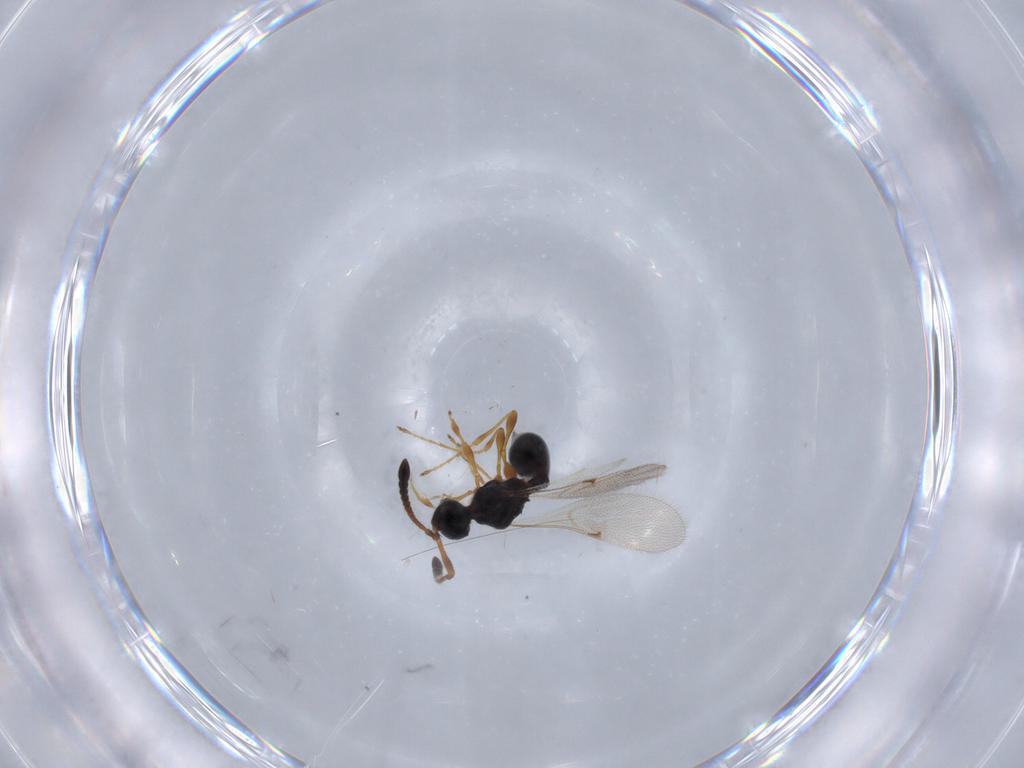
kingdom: Animalia
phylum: Arthropoda
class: Insecta
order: Hymenoptera
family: Diapriidae
